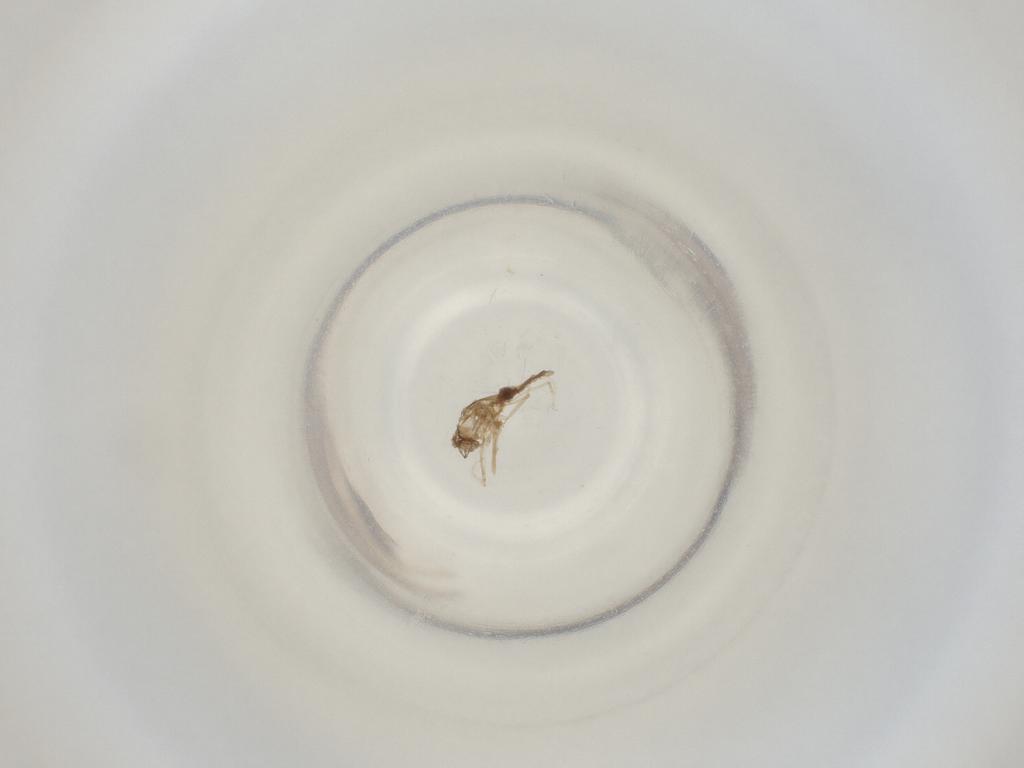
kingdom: Animalia
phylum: Arthropoda
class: Insecta
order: Diptera
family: Cecidomyiidae
